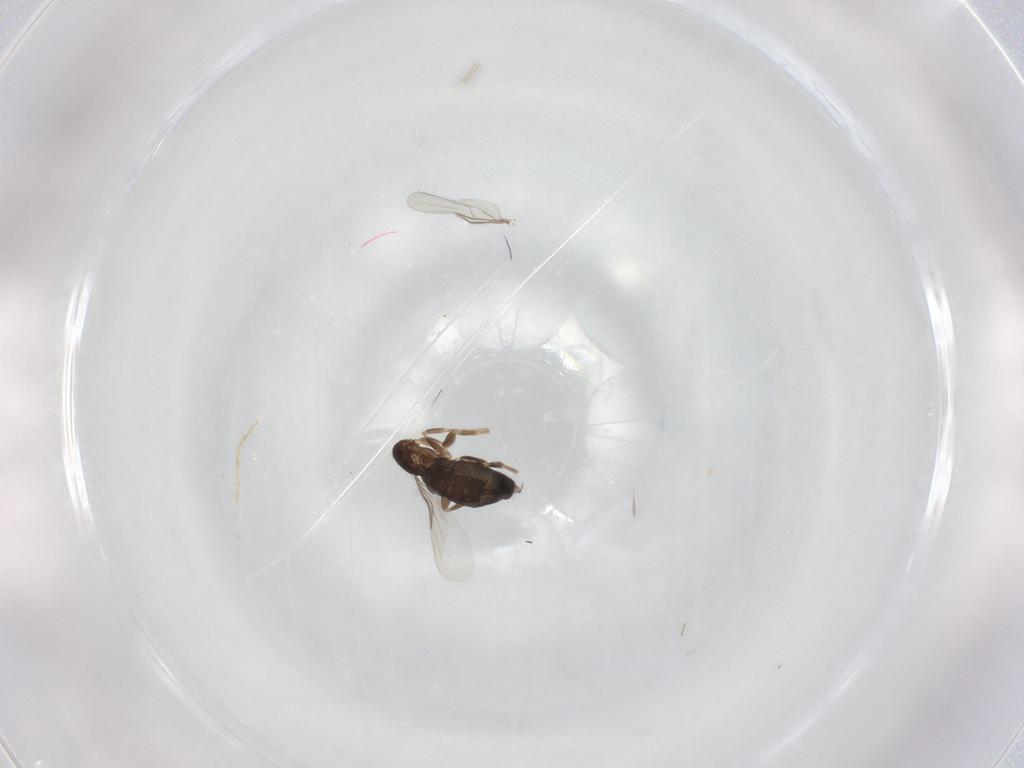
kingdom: Animalia
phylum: Arthropoda
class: Insecta
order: Diptera
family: Phoridae
